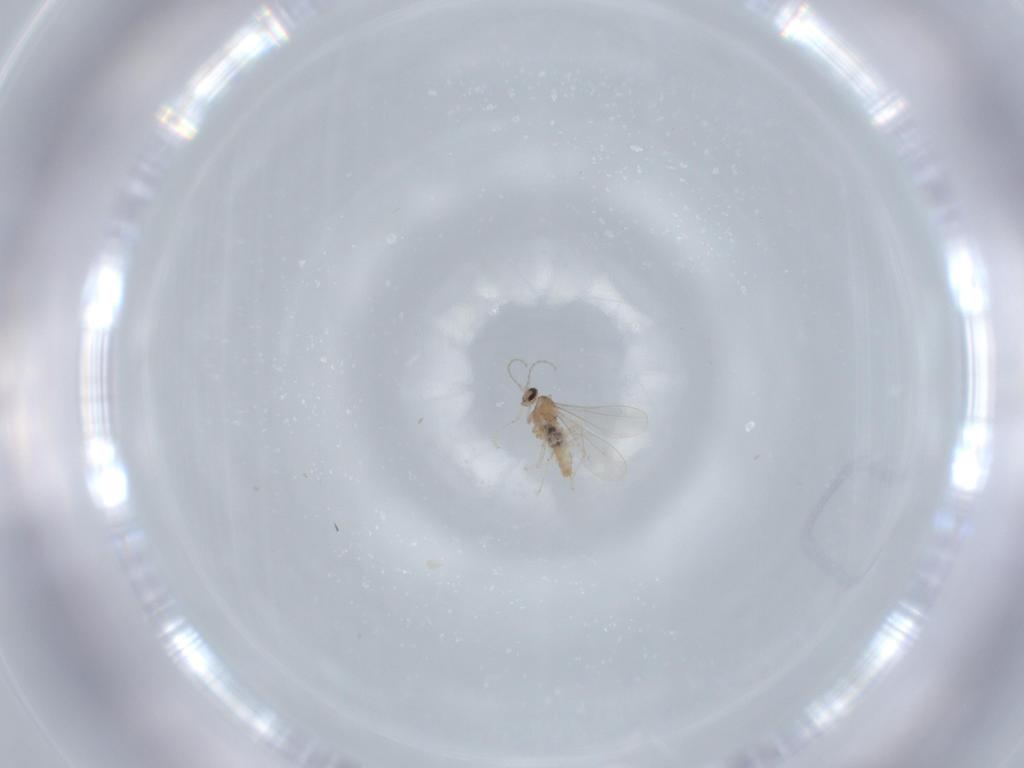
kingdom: Animalia
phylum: Arthropoda
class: Insecta
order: Diptera
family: Cecidomyiidae
